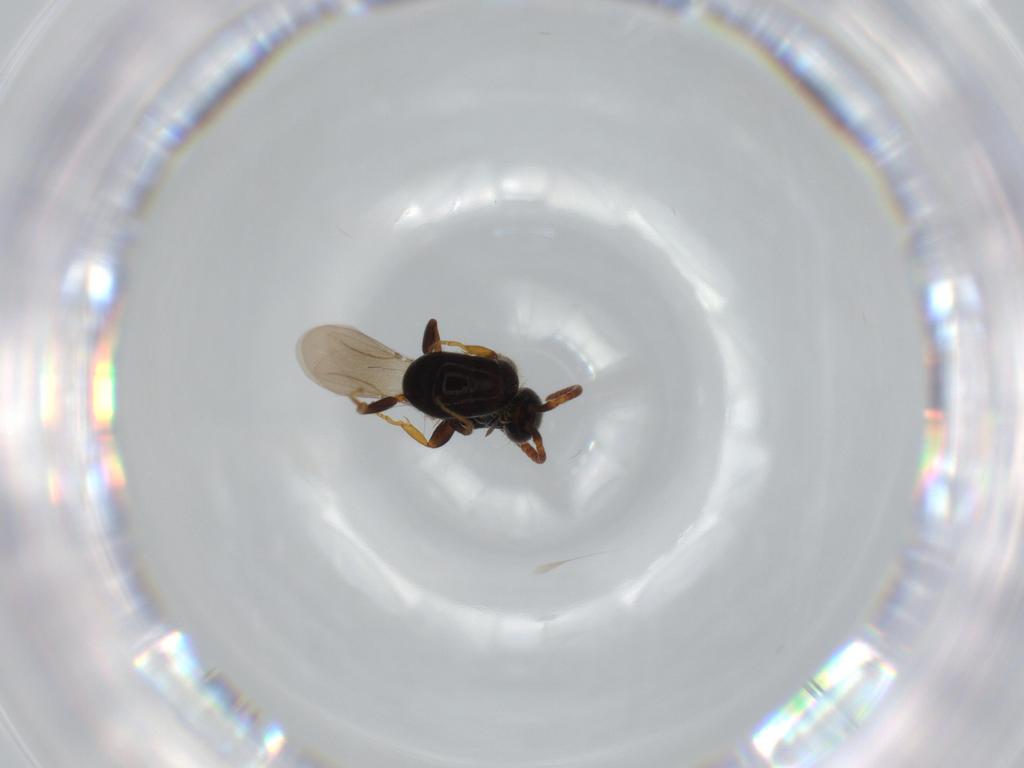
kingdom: Animalia
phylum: Arthropoda
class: Insecta
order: Hymenoptera
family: Bethylidae
